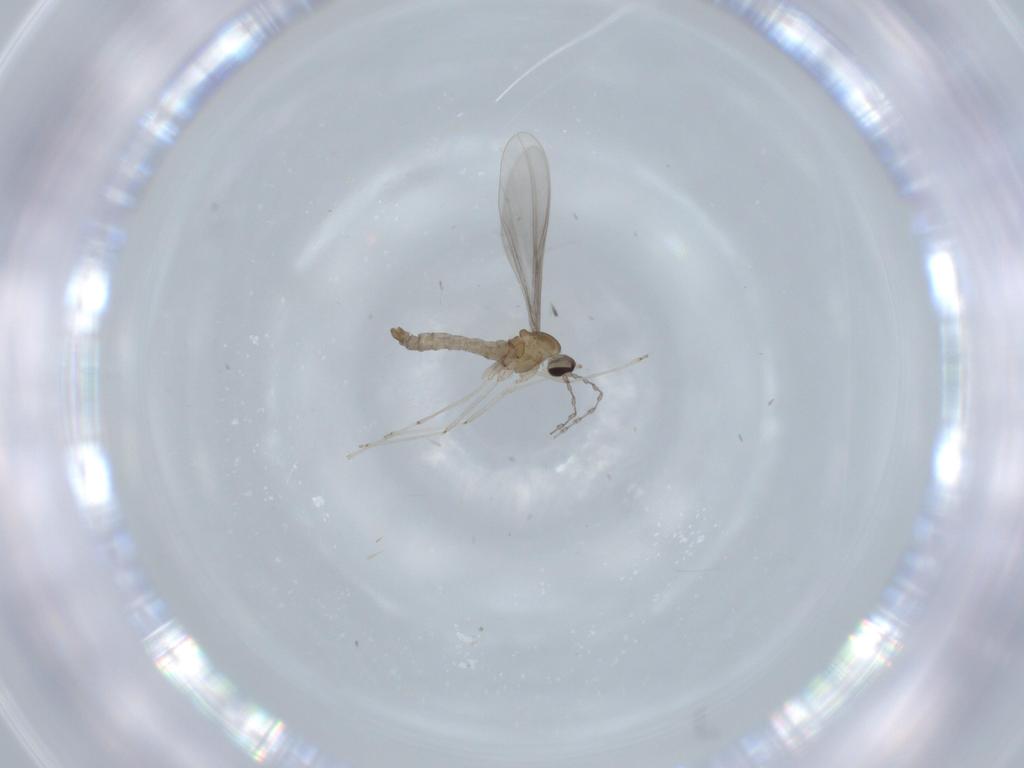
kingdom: Animalia
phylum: Arthropoda
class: Insecta
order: Diptera
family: Cecidomyiidae
